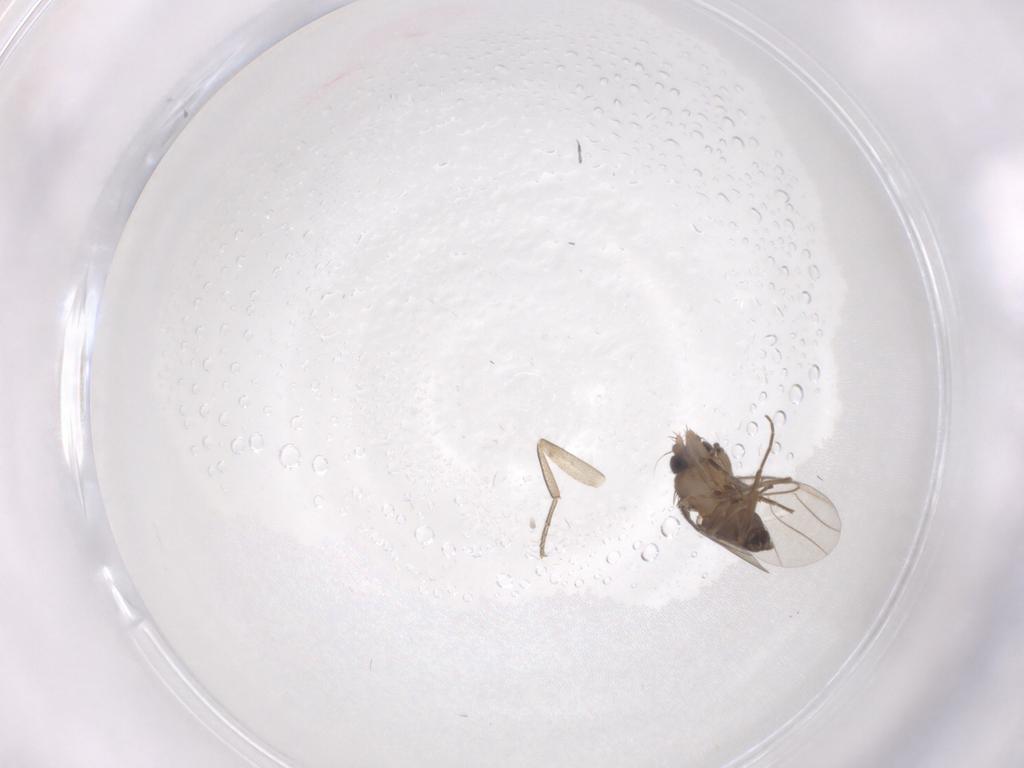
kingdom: Animalia
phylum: Arthropoda
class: Insecta
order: Diptera
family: Phoridae
